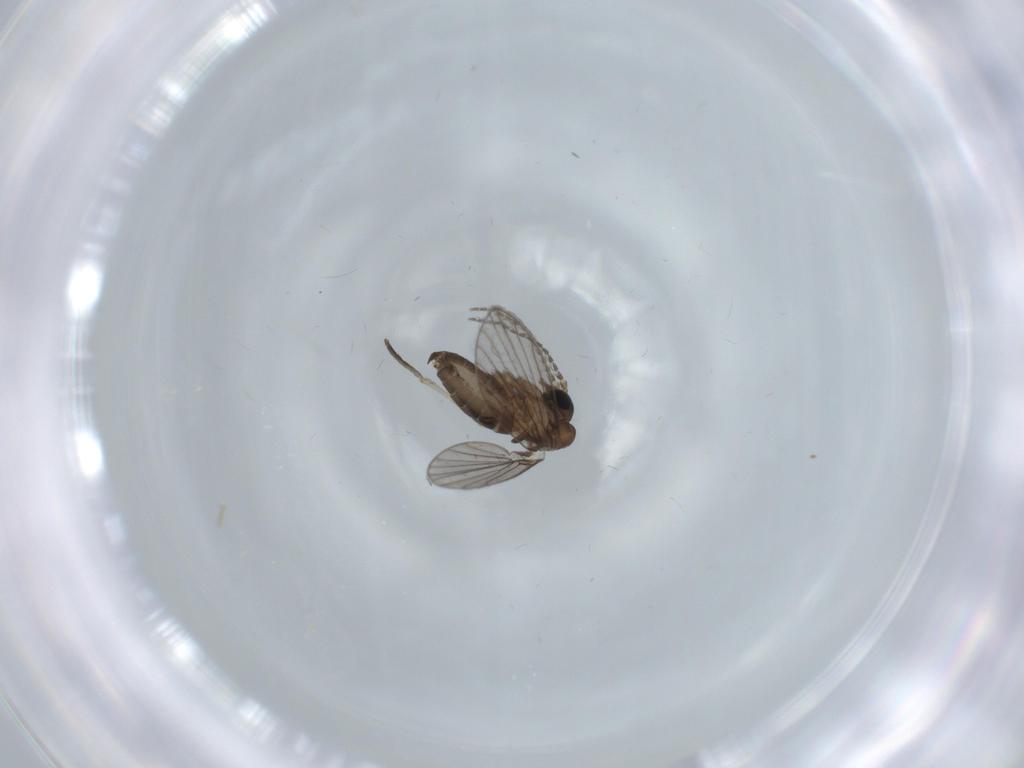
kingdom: Animalia
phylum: Arthropoda
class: Insecta
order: Diptera
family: Psychodidae
